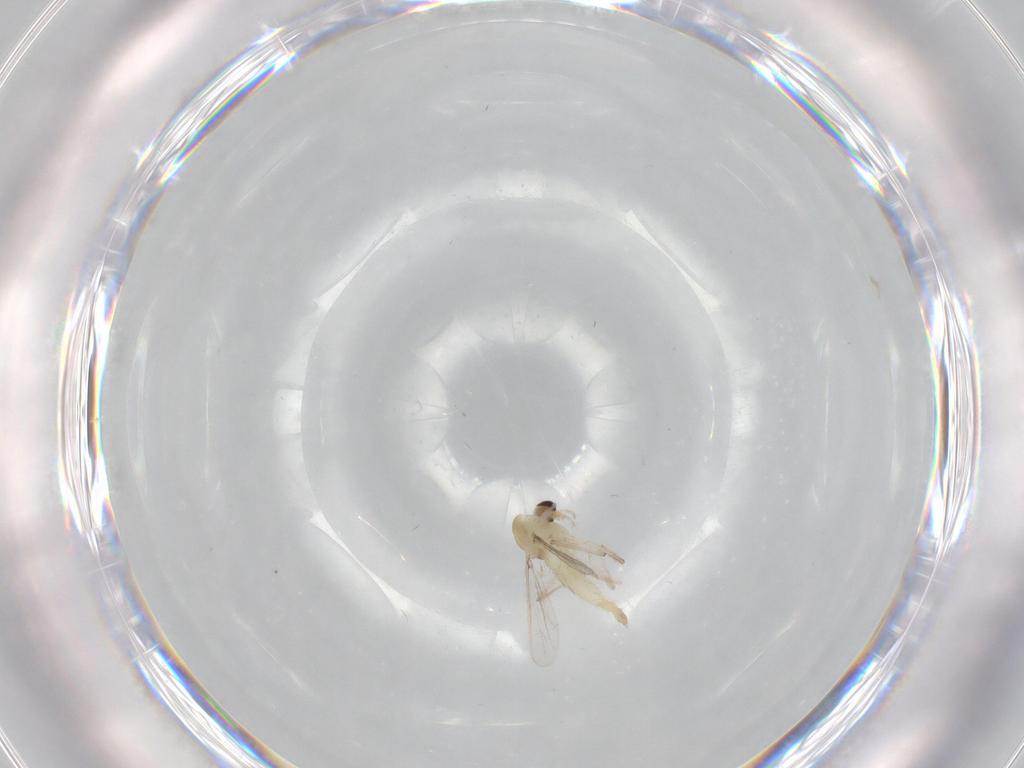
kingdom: Animalia
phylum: Arthropoda
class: Insecta
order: Diptera
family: Chironomidae
